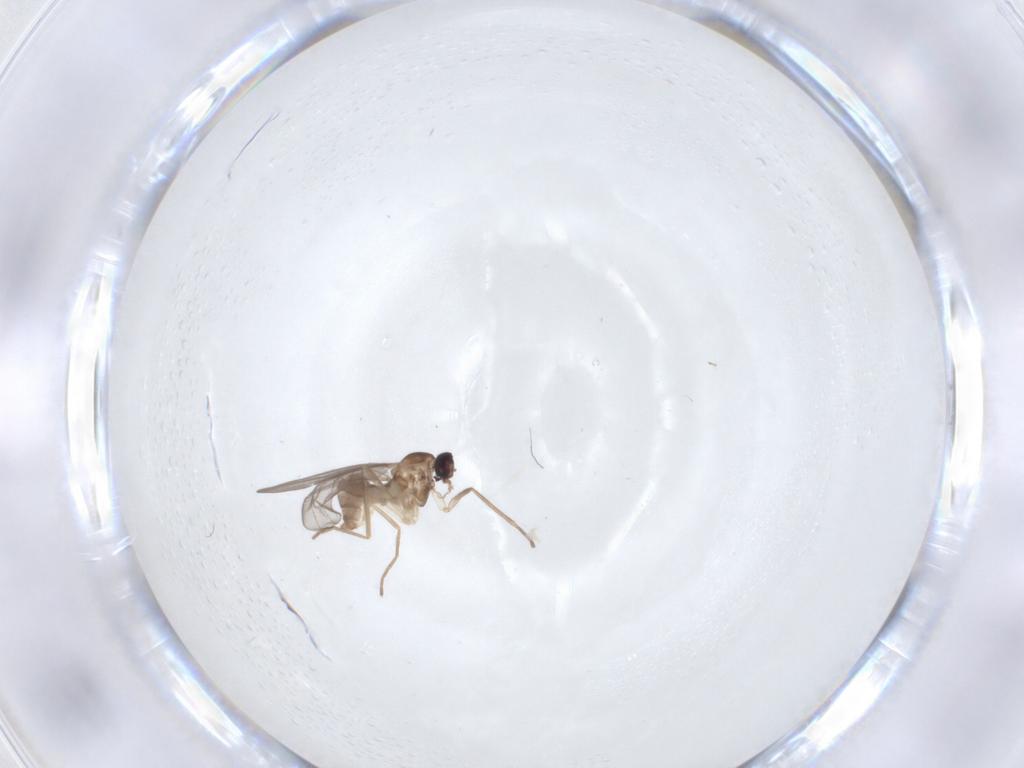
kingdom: Animalia
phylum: Arthropoda
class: Insecta
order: Diptera
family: Cecidomyiidae
